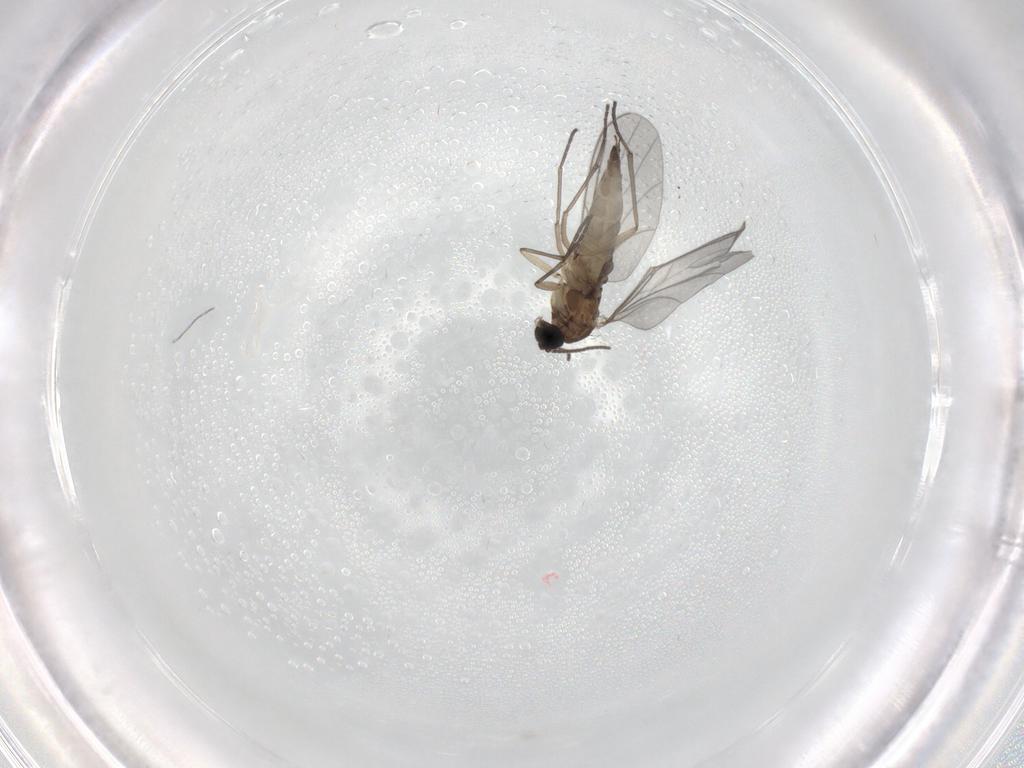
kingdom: Animalia
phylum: Arthropoda
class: Insecta
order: Diptera
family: Sciaridae
